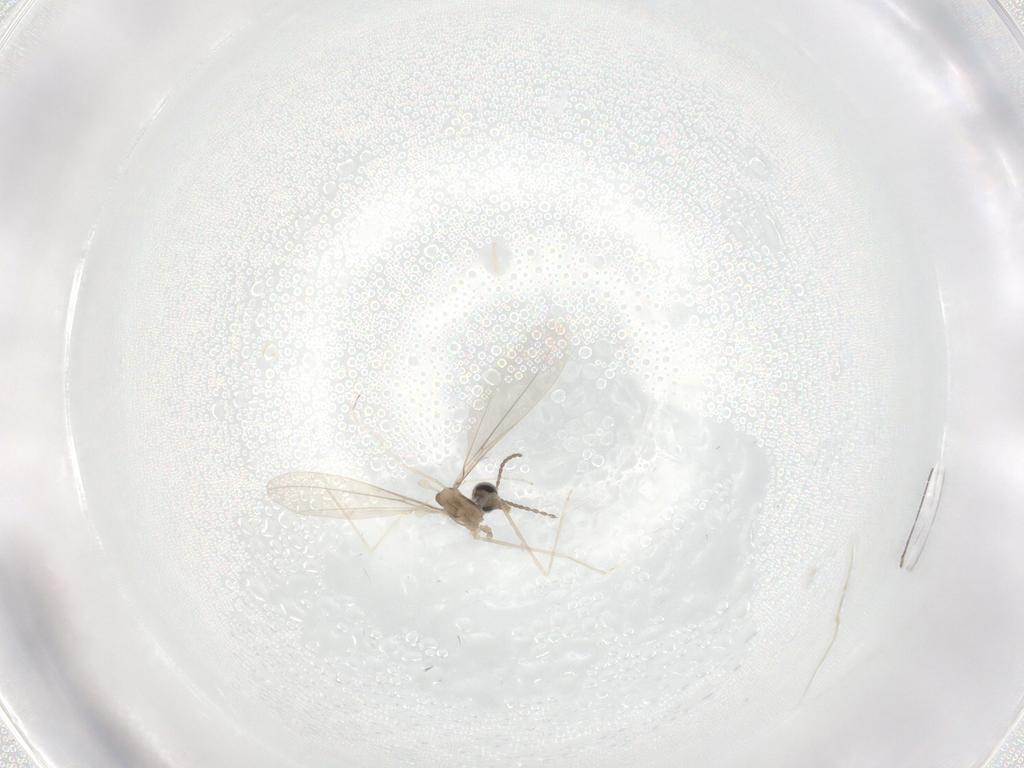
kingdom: Animalia
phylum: Arthropoda
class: Insecta
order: Diptera
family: Cecidomyiidae
